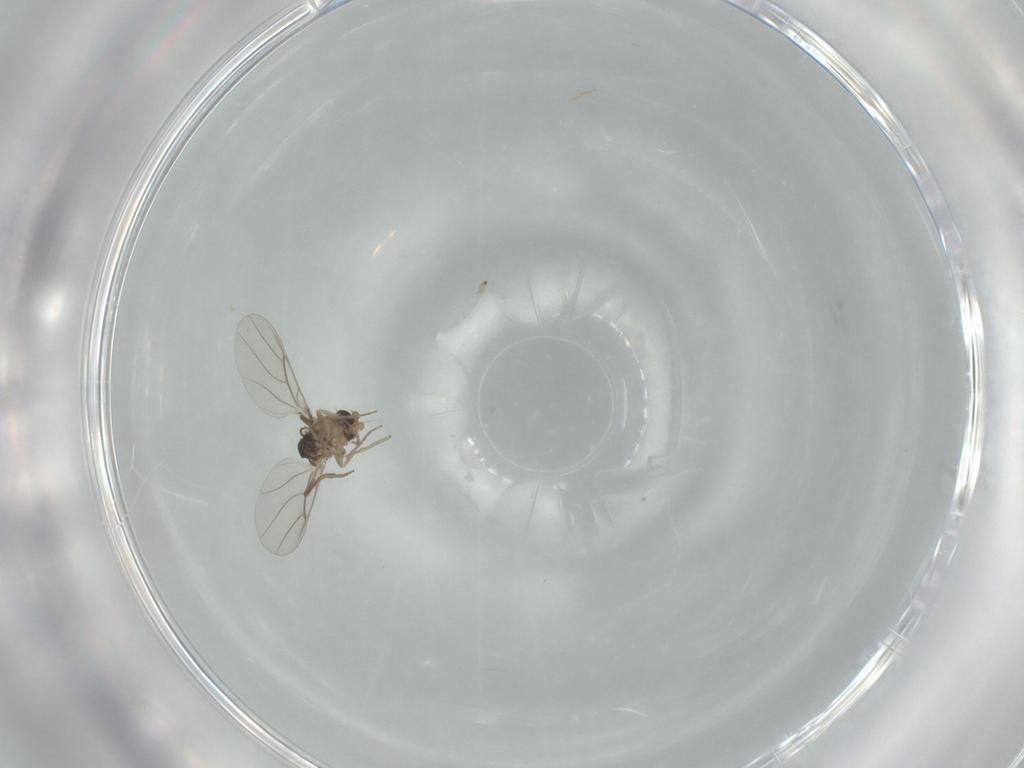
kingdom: Animalia
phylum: Arthropoda
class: Insecta
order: Diptera
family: Phoridae
